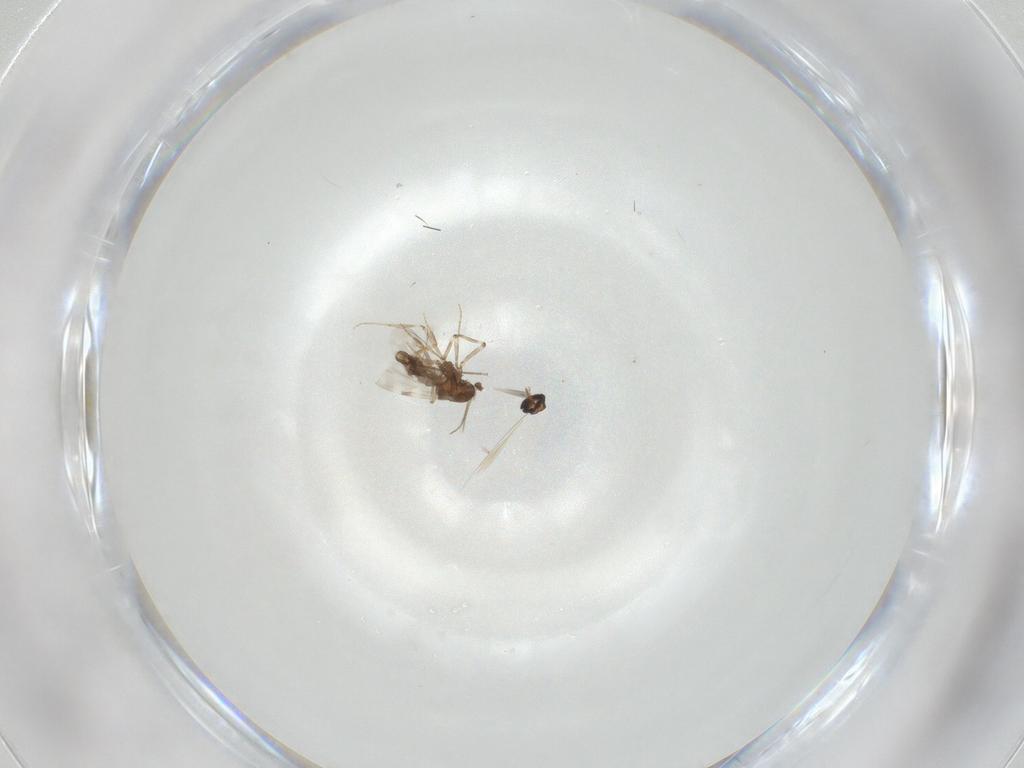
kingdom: Animalia
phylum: Arthropoda
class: Insecta
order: Diptera
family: Ceratopogonidae
